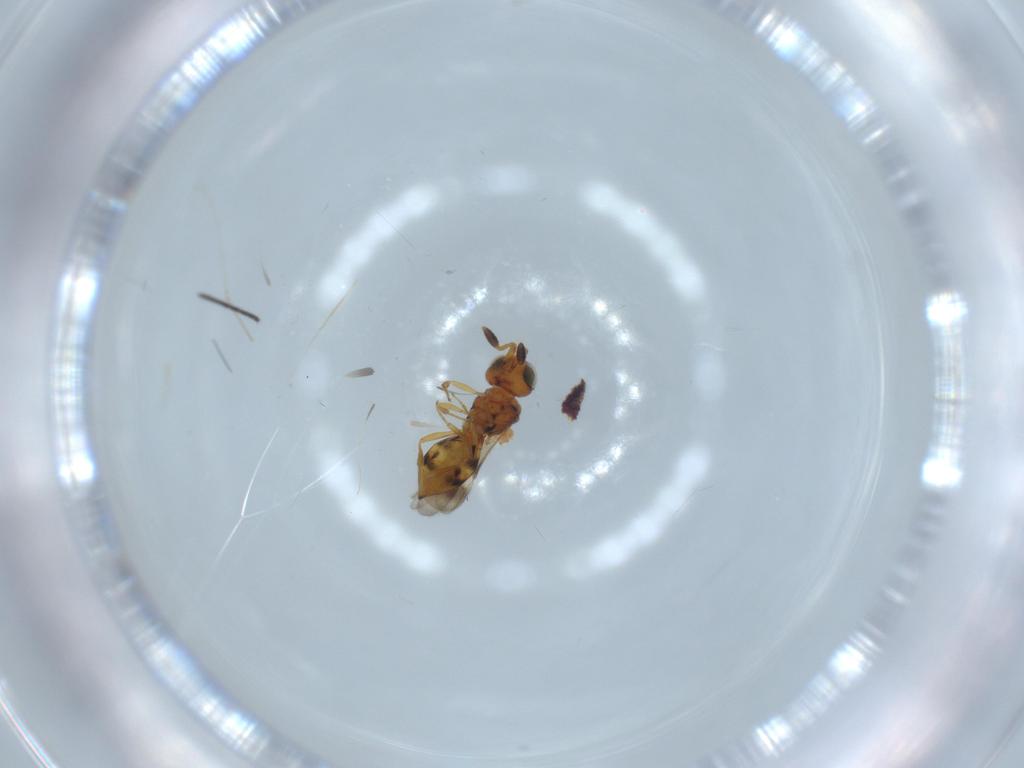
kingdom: Animalia
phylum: Arthropoda
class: Insecta
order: Hymenoptera
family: Scelionidae
